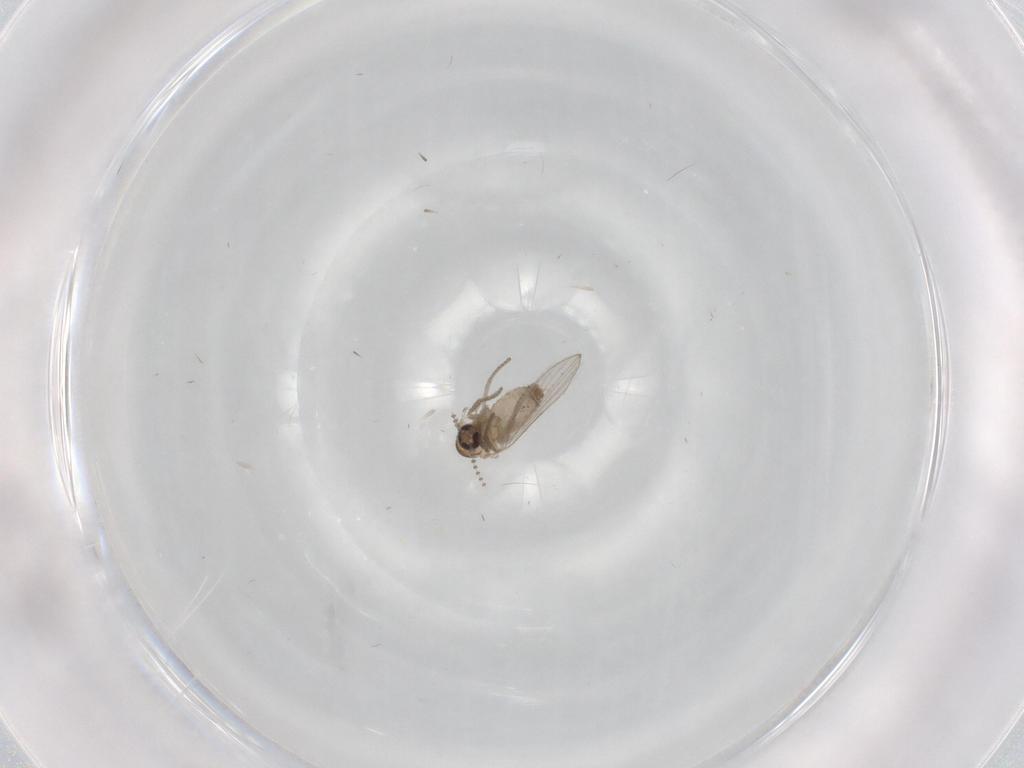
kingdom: Animalia
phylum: Arthropoda
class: Insecta
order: Diptera
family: Psychodidae
